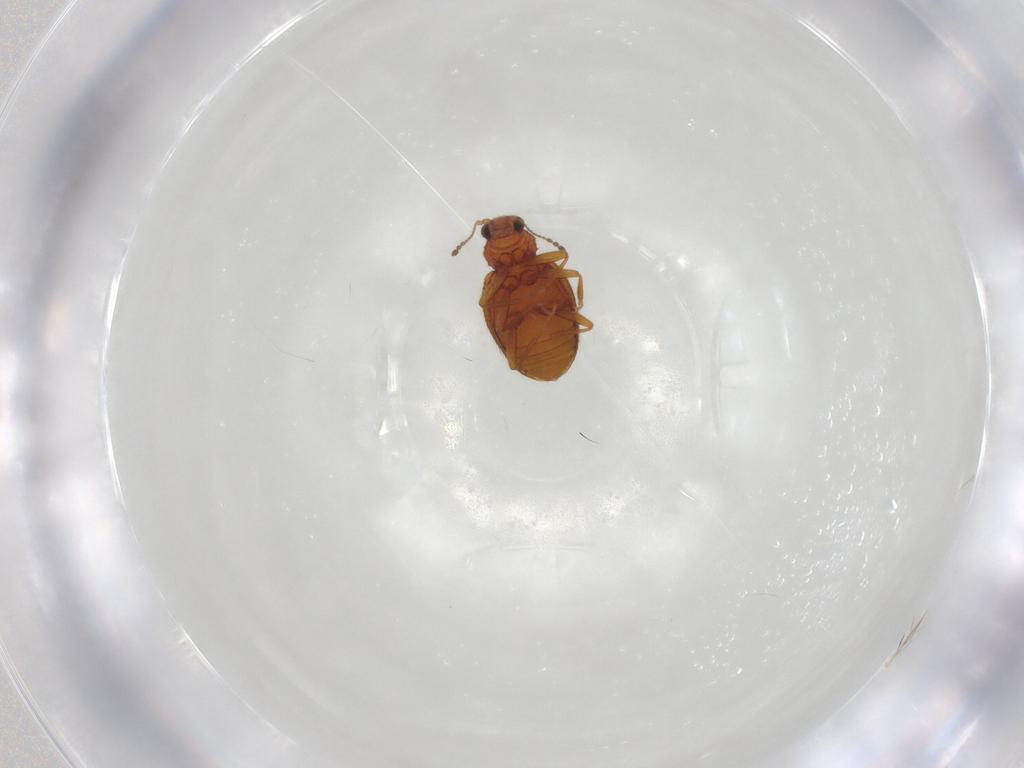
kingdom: Animalia
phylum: Arthropoda
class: Insecta
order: Coleoptera
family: Latridiidae
